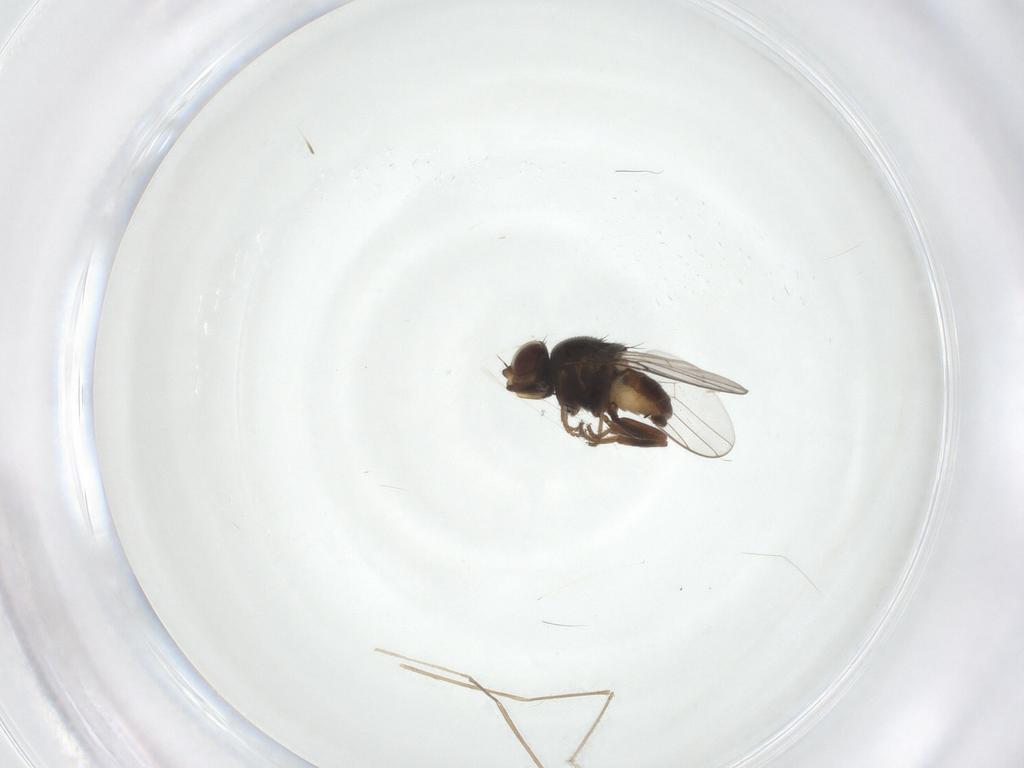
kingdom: Animalia
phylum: Arthropoda
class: Insecta
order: Diptera
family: Chloropidae
